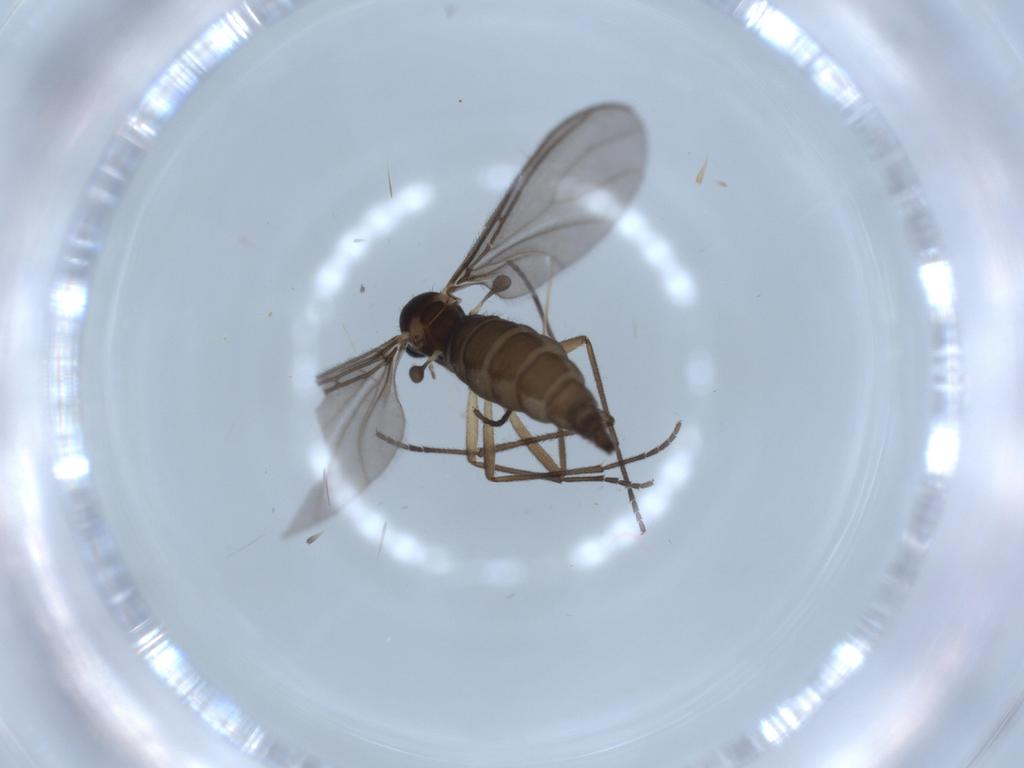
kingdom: Animalia
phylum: Arthropoda
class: Insecta
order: Diptera
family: Sciaridae
